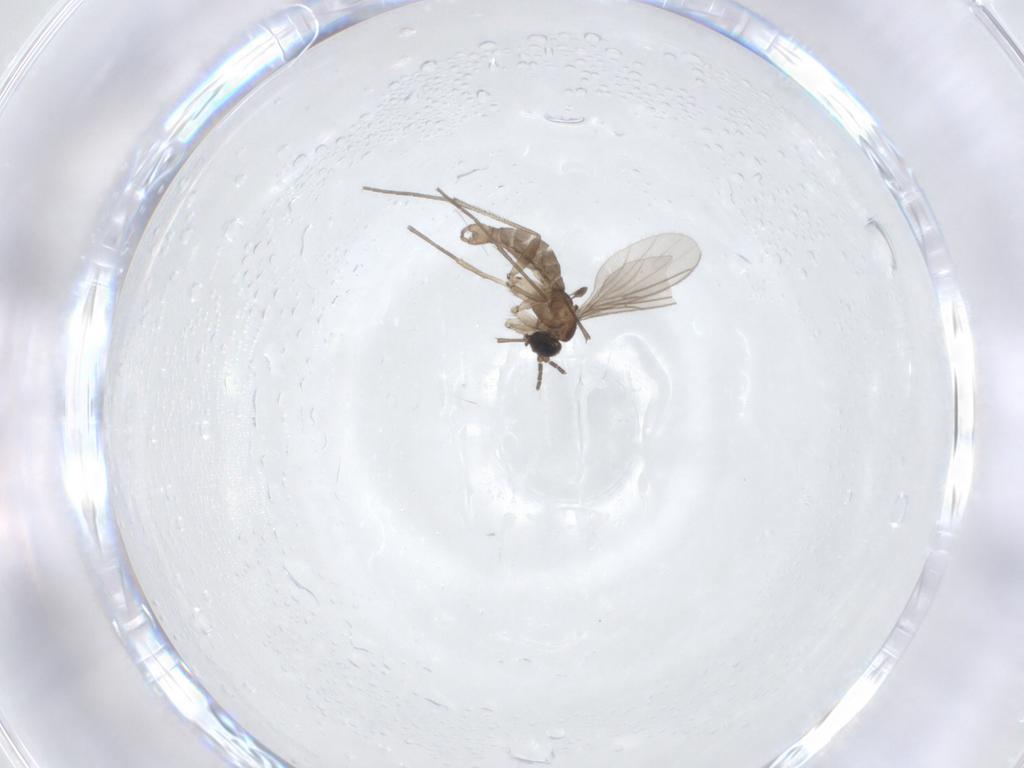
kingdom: Animalia
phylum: Arthropoda
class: Insecta
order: Diptera
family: Sciaridae
